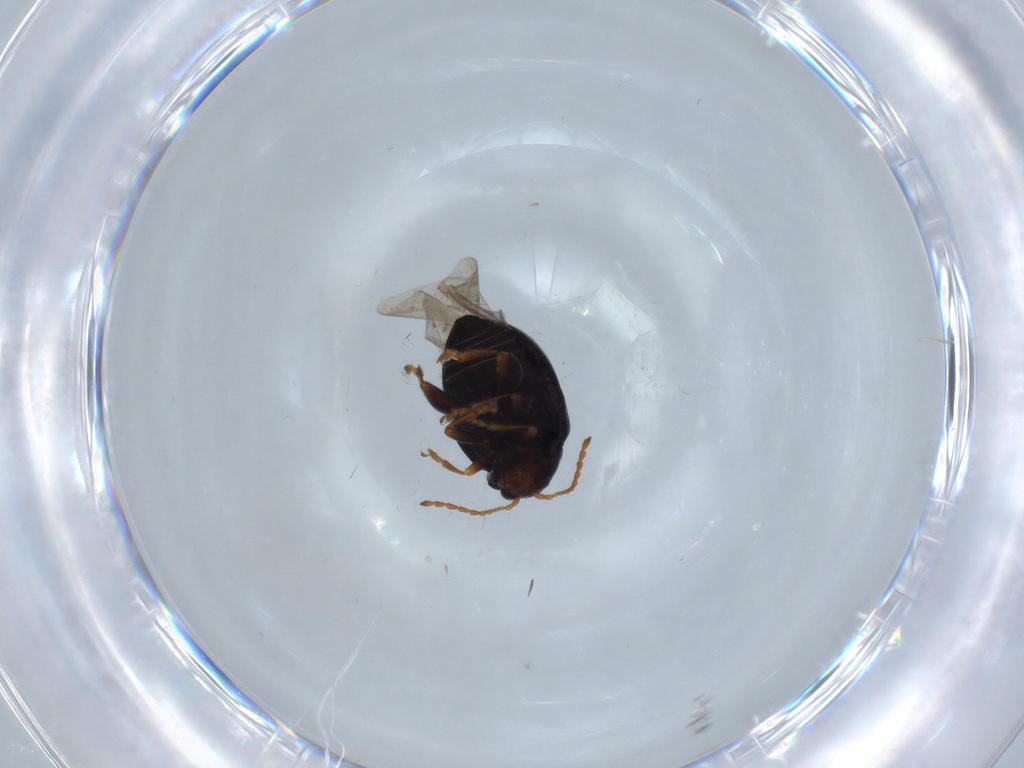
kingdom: Animalia
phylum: Arthropoda
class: Insecta
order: Coleoptera
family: Chrysomelidae
